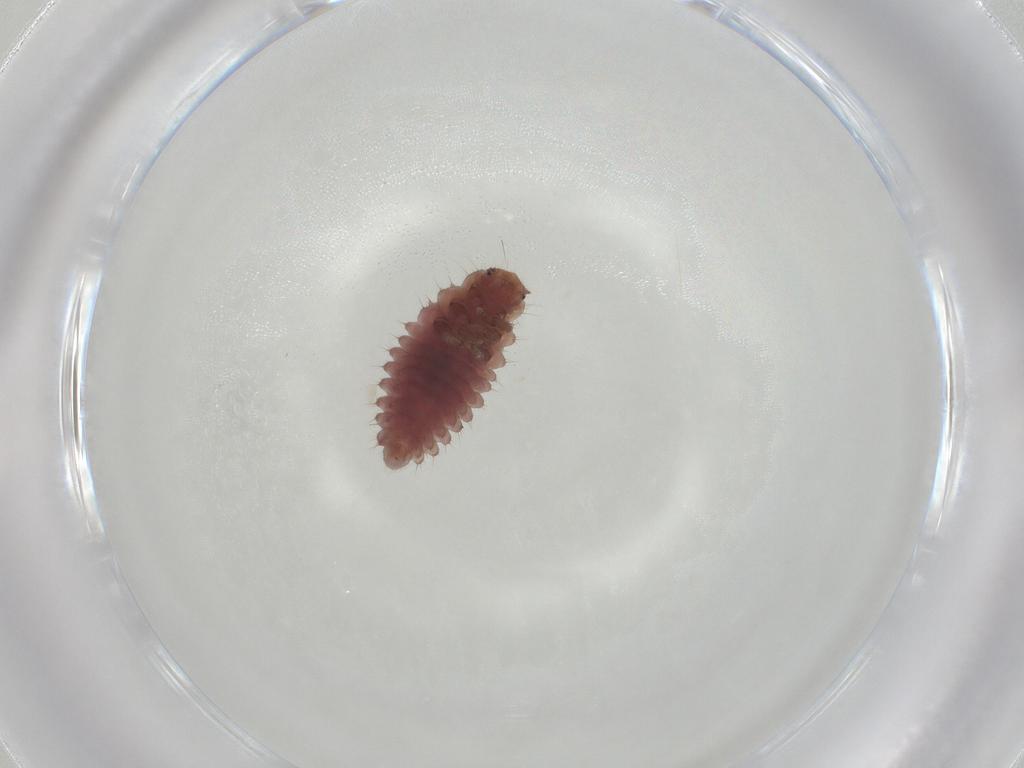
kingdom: Animalia
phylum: Arthropoda
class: Insecta
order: Coleoptera
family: Coccinellidae
